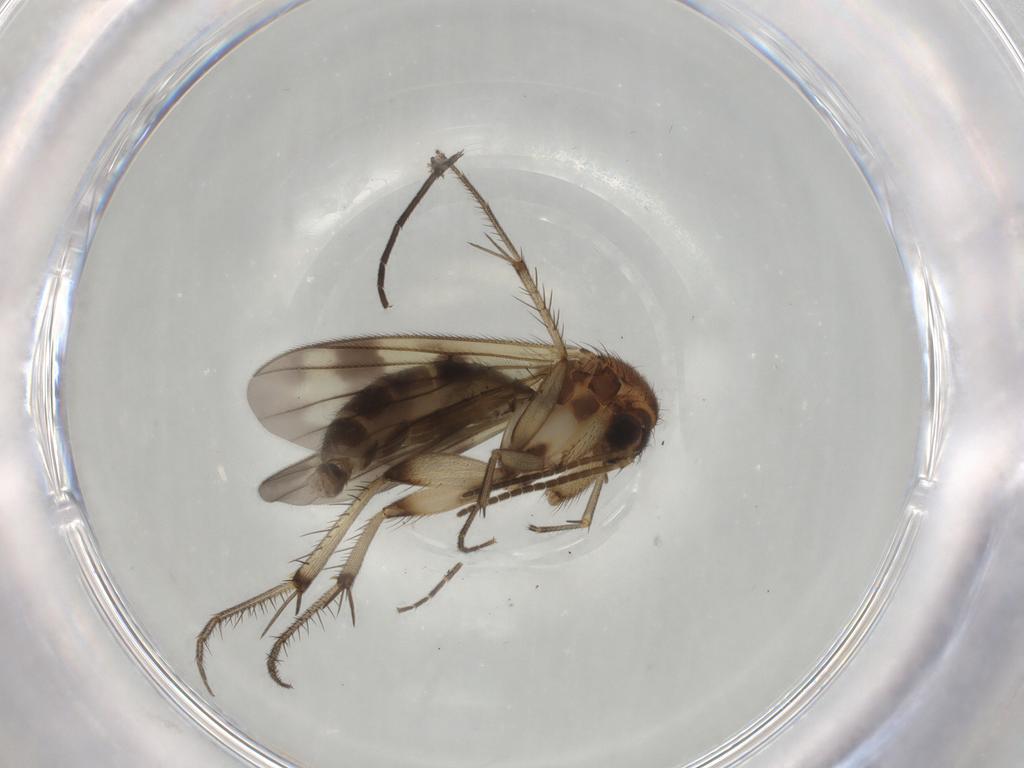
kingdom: Animalia
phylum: Arthropoda
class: Insecta
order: Diptera
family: Mycetophilidae
